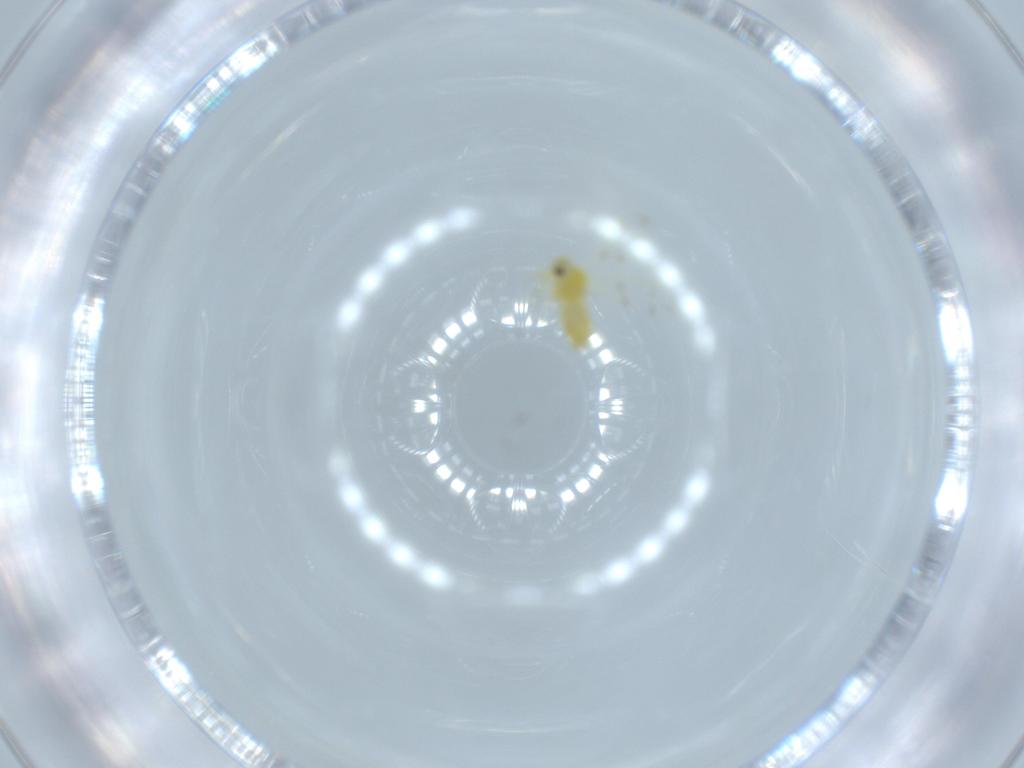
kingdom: Animalia
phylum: Arthropoda
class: Insecta
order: Hemiptera
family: Aleyrodidae
